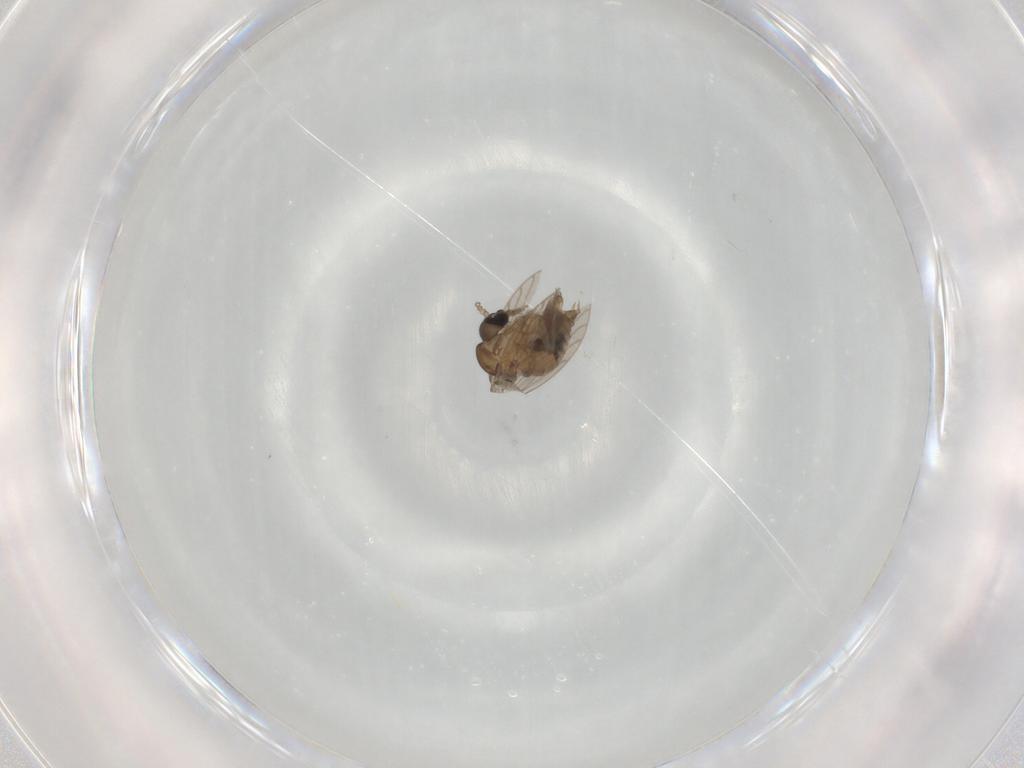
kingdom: Animalia
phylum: Arthropoda
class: Insecta
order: Diptera
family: Psychodidae
